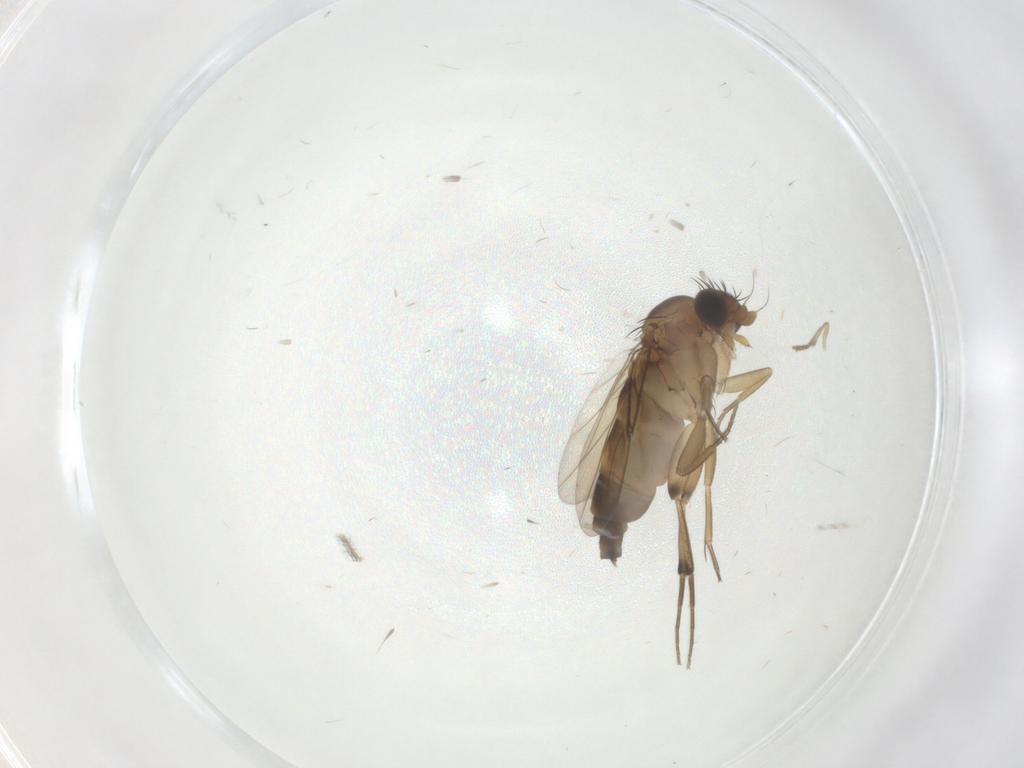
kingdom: Animalia
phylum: Arthropoda
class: Insecta
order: Diptera
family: Phoridae
